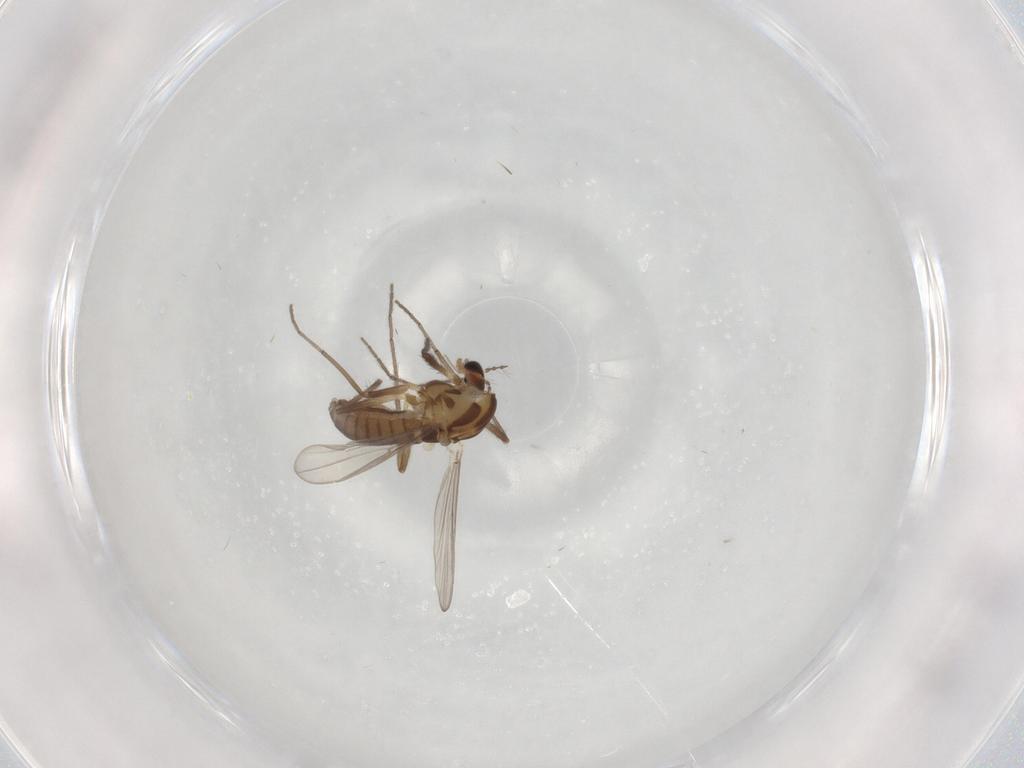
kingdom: Animalia
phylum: Arthropoda
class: Insecta
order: Diptera
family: Chironomidae
